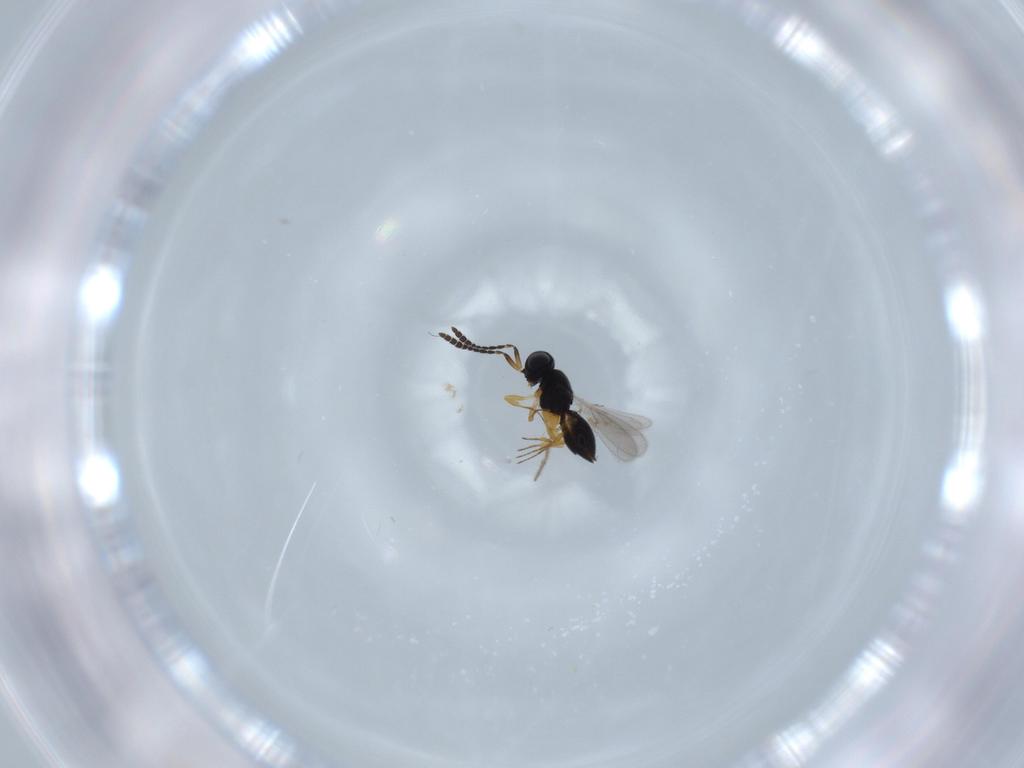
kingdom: Animalia
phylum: Arthropoda
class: Insecta
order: Hymenoptera
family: Scelionidae
